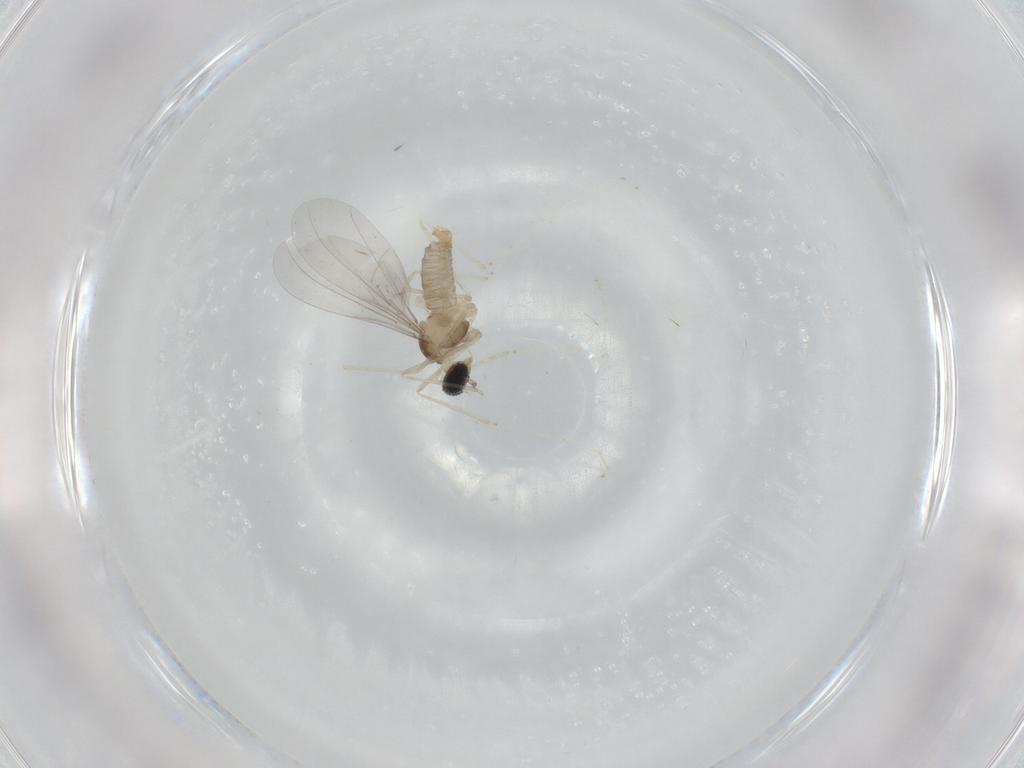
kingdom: Animalia
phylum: Arthropoda
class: Insecta
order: Diptera
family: Cecidomyiidae
